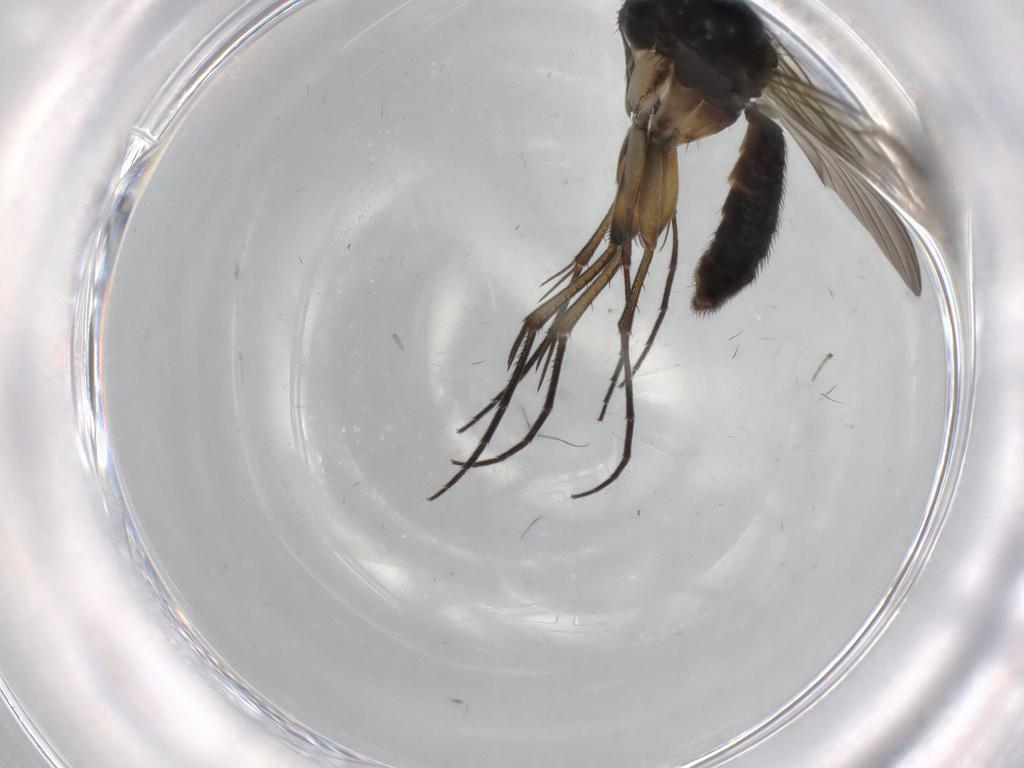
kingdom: Animalia
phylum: Arthropoda
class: Insecta
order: Diptera
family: Mycetophilidae
